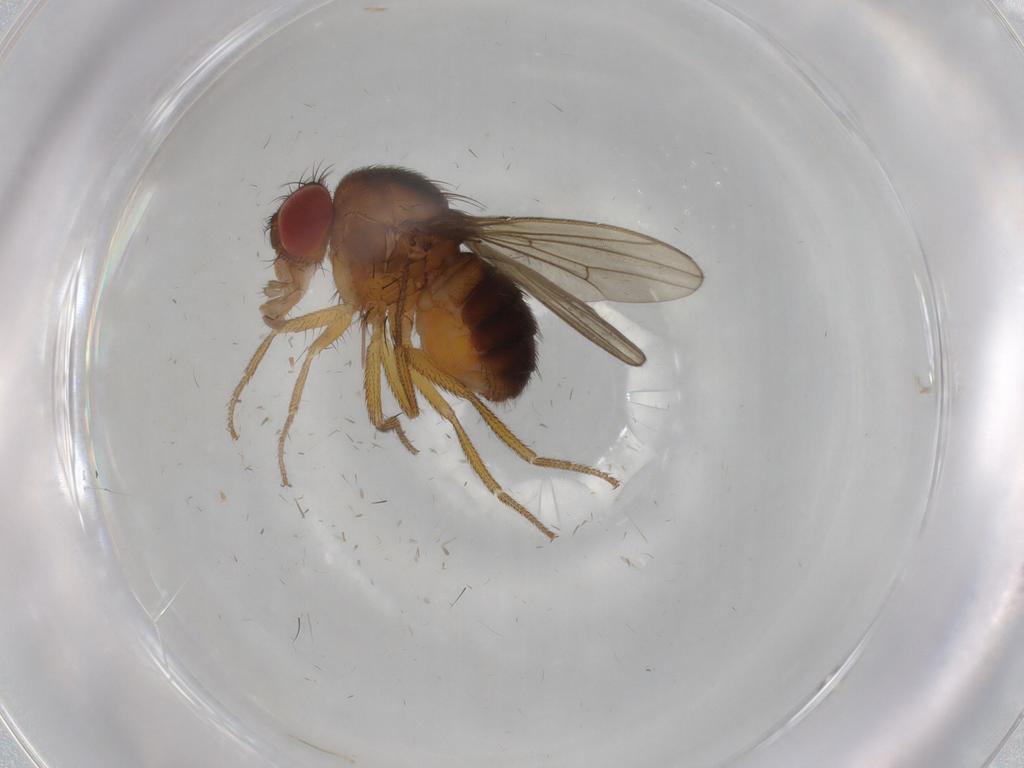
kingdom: Animalia
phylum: Arthropoda
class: Insecta
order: Diptera
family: Drosophilidae
